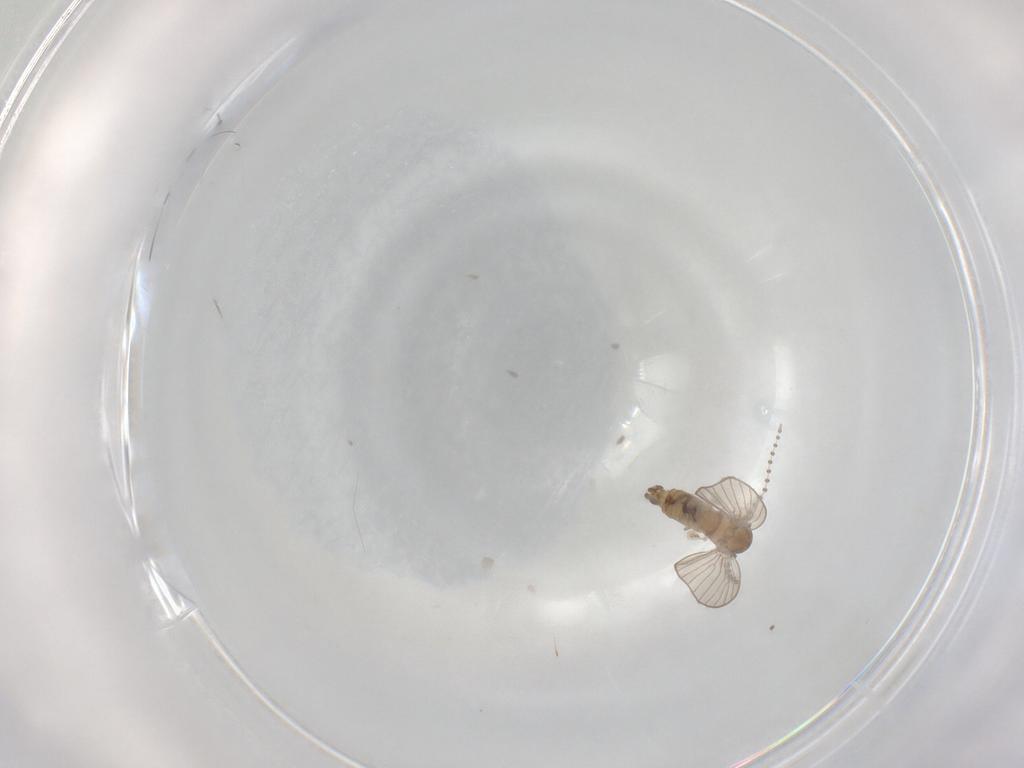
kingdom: Animalia
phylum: Arthropoda
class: Insecta
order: Diptera
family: Psychodidae
